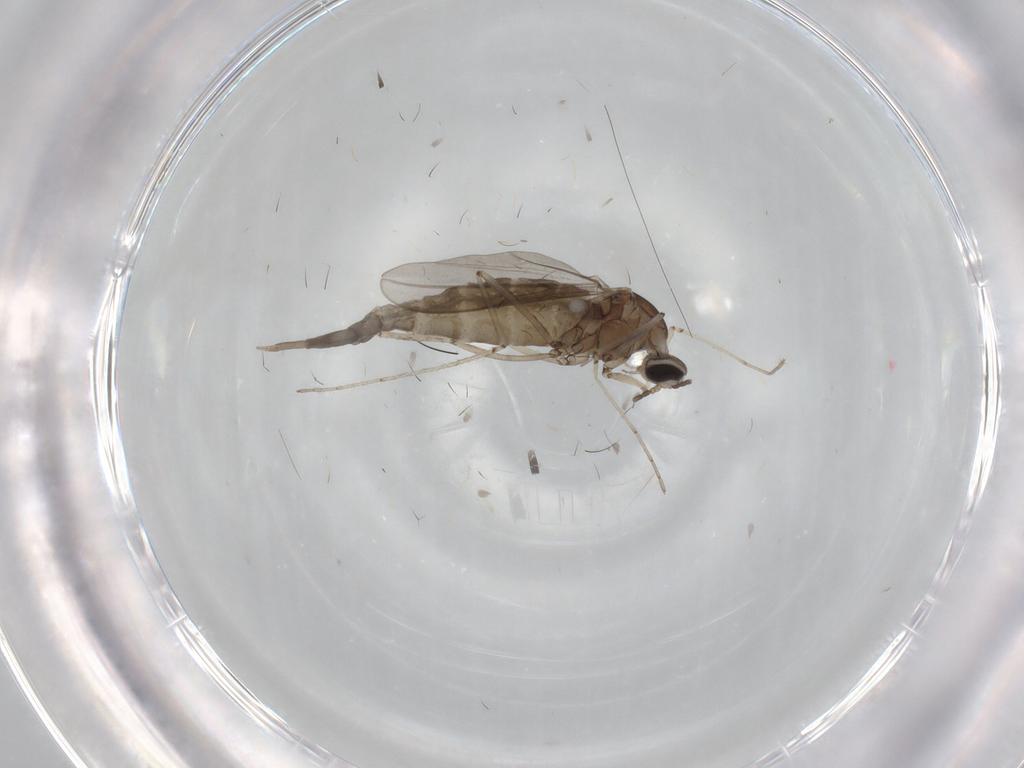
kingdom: Animalia
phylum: Arthropoda
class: Insecta
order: Diptera
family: Cecidomyiidae
